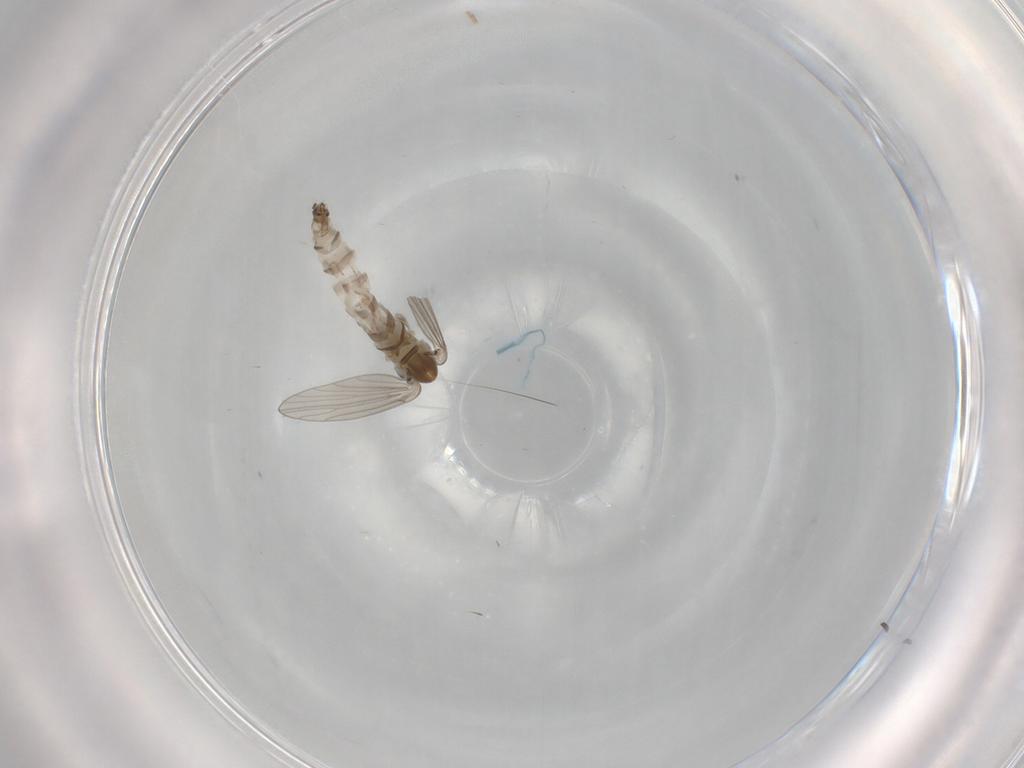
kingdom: Animalia
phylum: Arthropoda
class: Insecta
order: Diptera
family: Psychodidae
